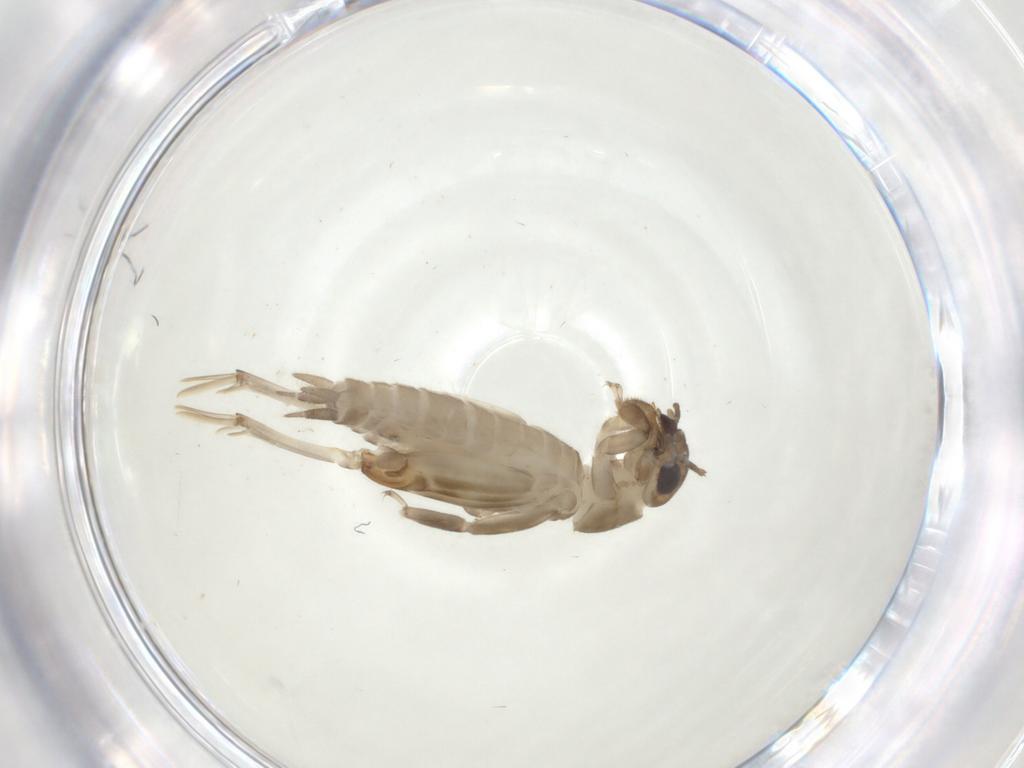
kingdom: Animalia
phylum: Arthropoda
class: Insecta
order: Orthoptera
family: Tridactylidae
